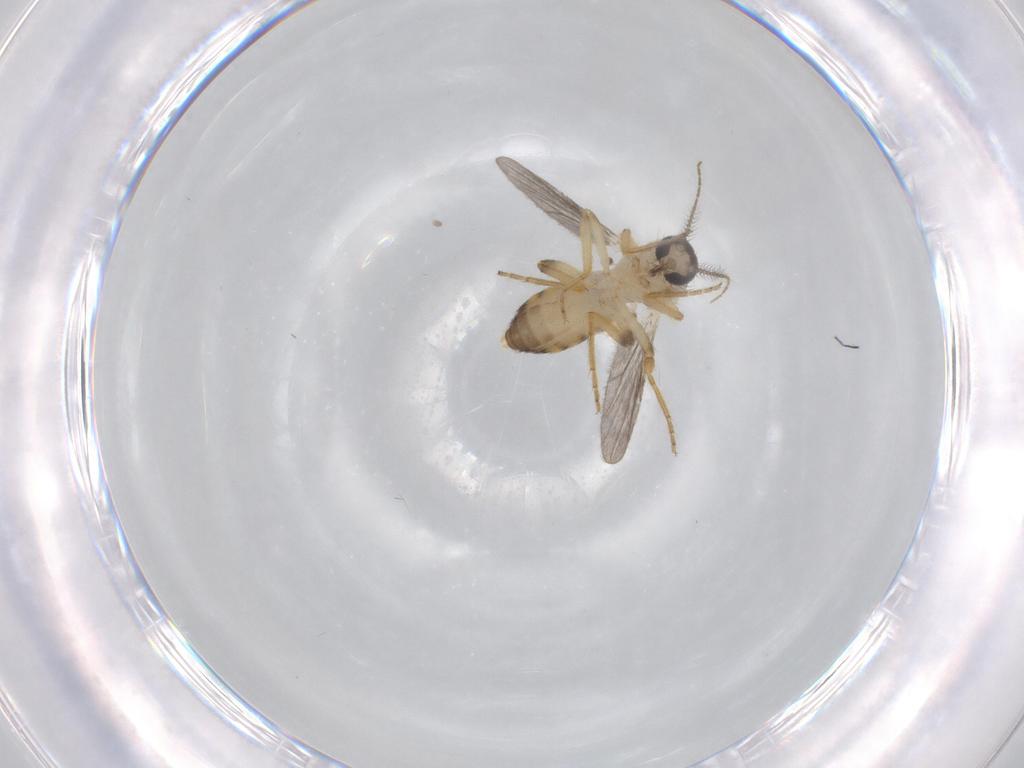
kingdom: Animalia
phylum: Arthropoda
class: Insecta
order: Diptera
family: Ceratopogonidae
